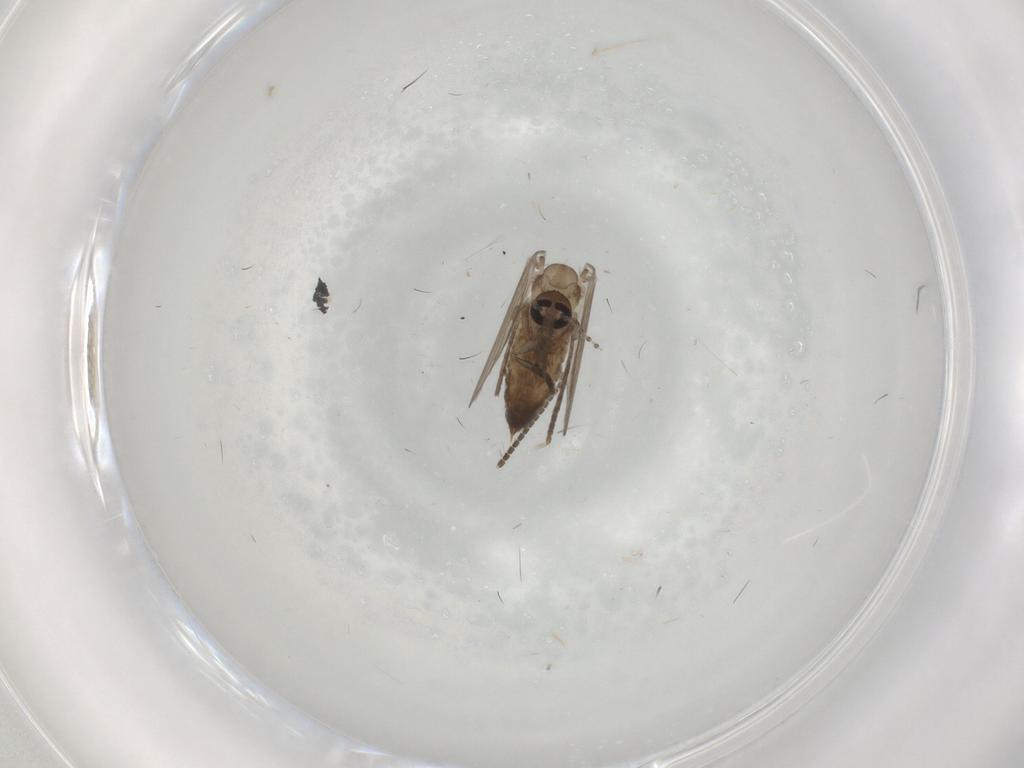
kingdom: Animalia
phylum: Arthropoda
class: Insecta
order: Diptera
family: Psychodidae
